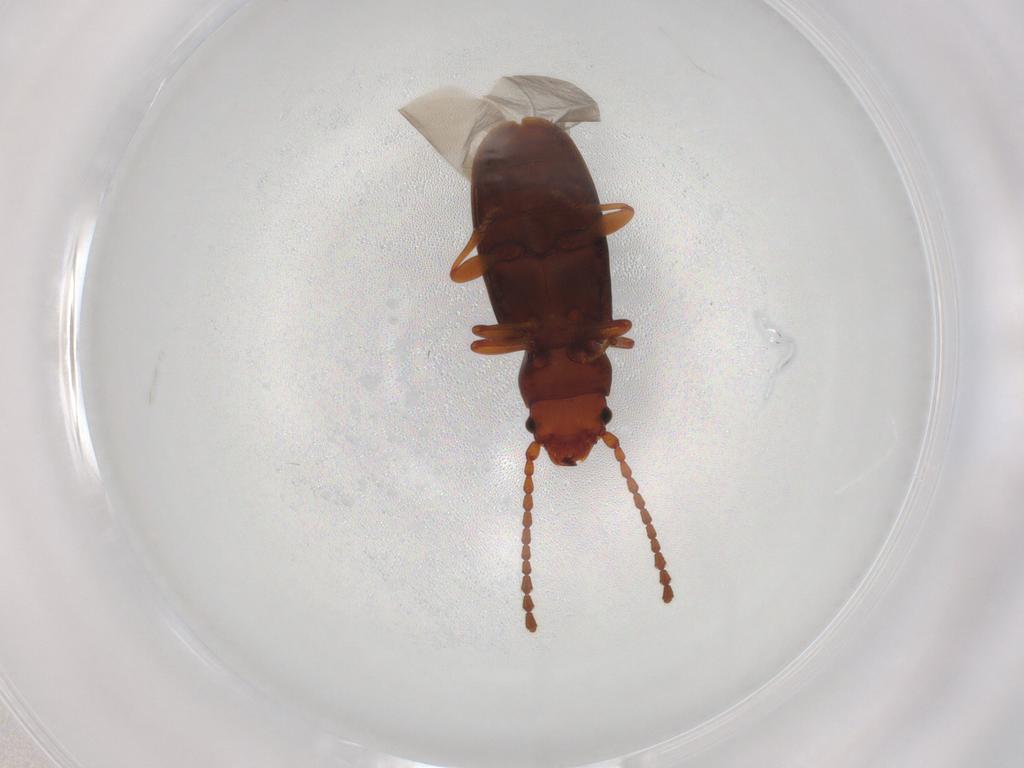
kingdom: Animalia
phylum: Arthropoda
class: Insecta
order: Coleoptera
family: Laemophloeidae
